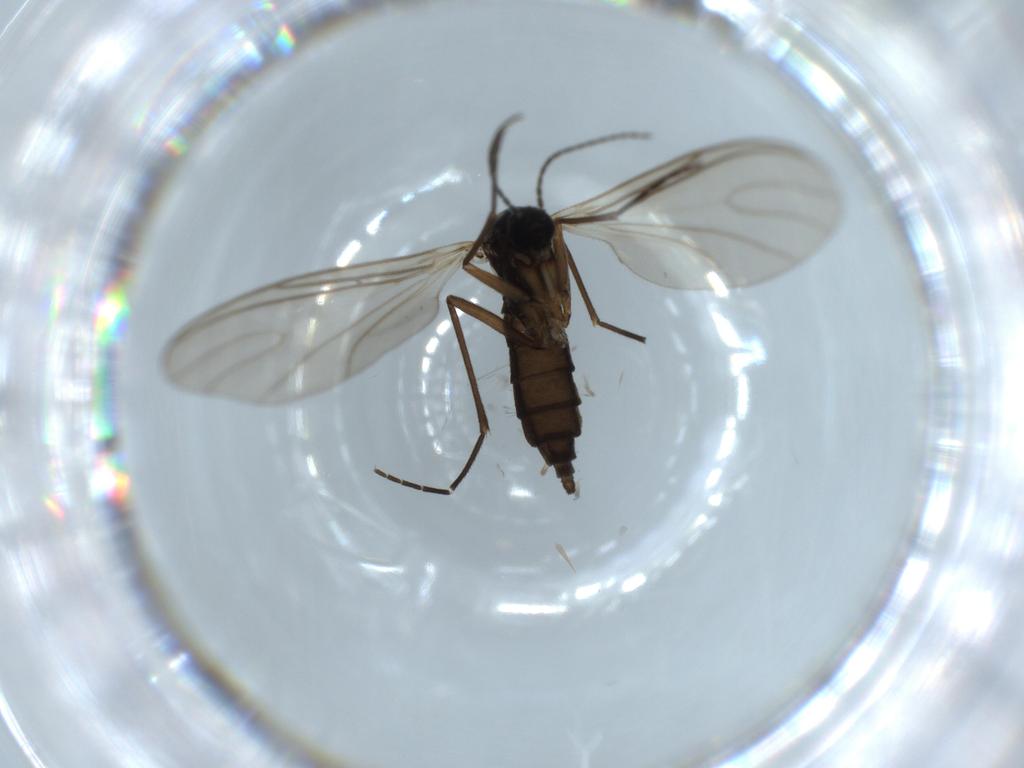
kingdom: Animalia
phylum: Arthropoda
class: Insecta
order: Diptera
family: Sciaridae
